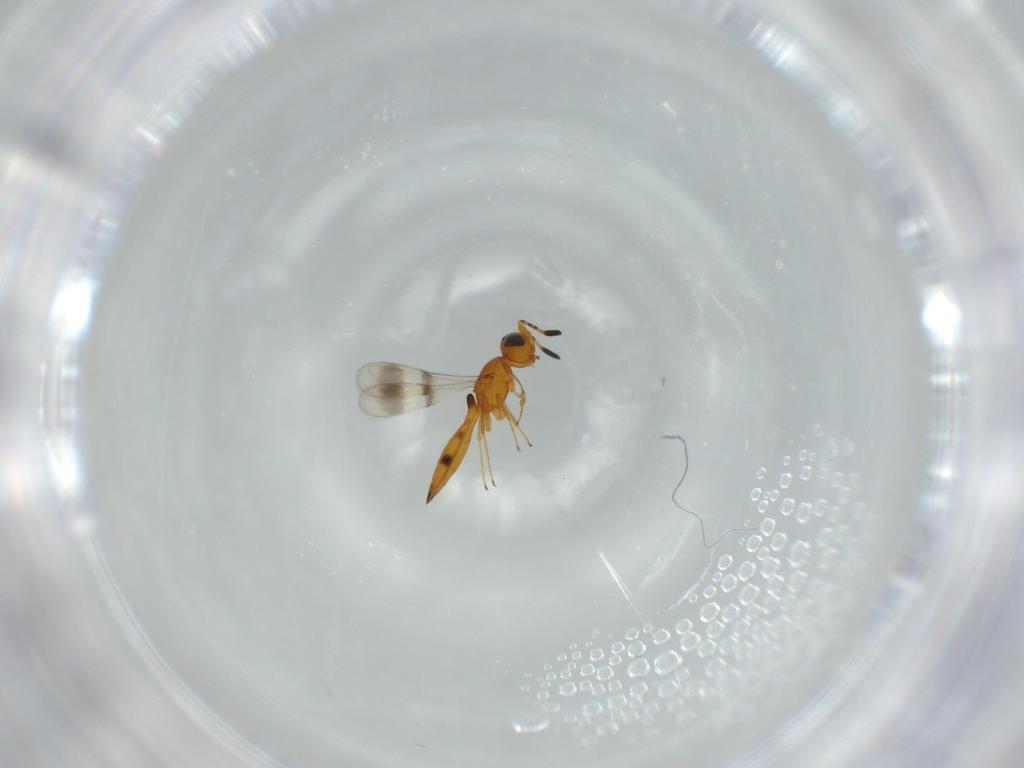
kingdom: Animalia
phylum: Arthropoda
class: Insecta
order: Hymenoptera
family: Scelionidae
